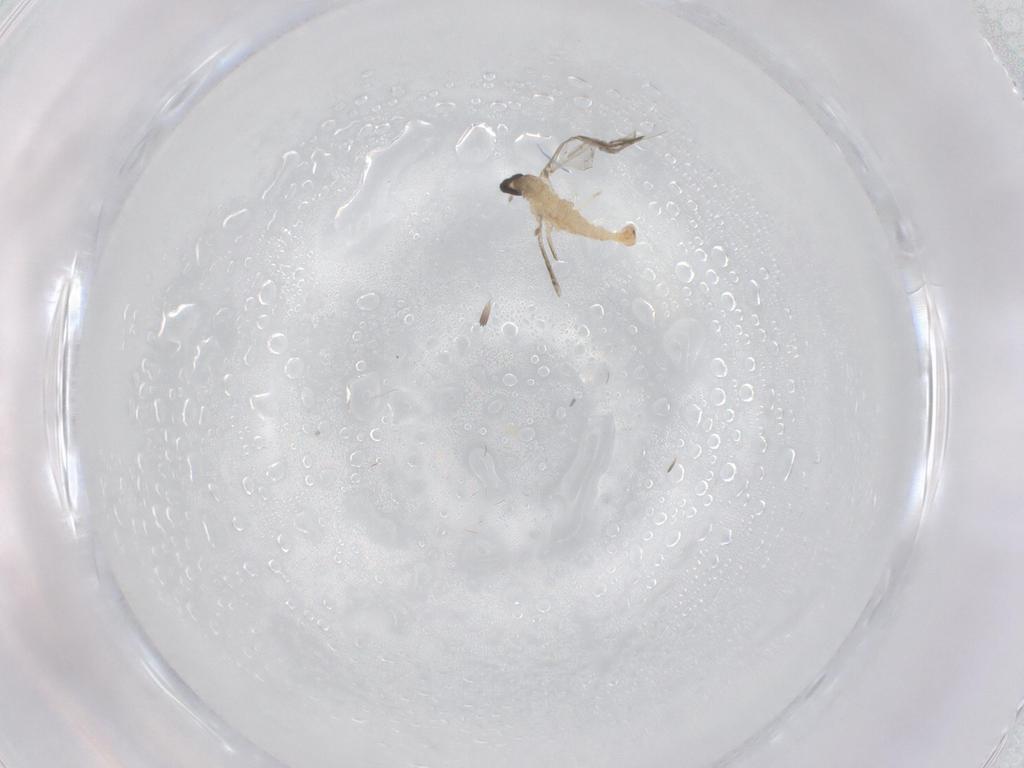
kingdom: Animalia
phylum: Arthropoda
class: Insecta
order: Diptera
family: Cecidomyiidae
